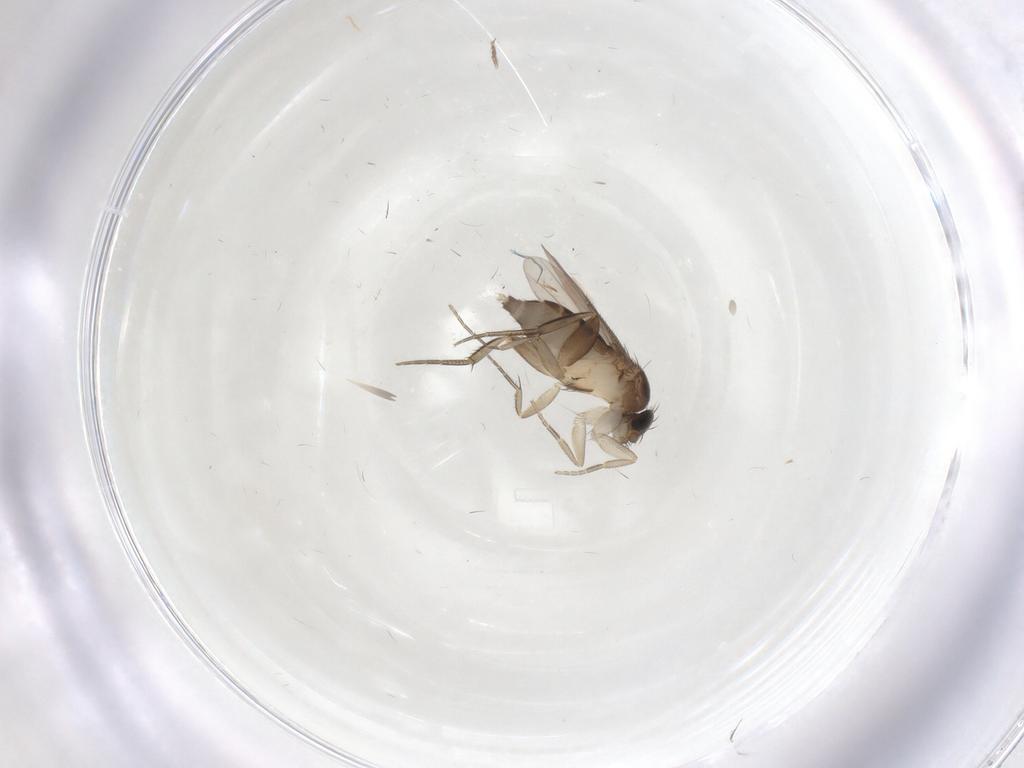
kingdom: Animalia
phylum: Arthropoda
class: Insecta
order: Diptera
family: Phoridae
